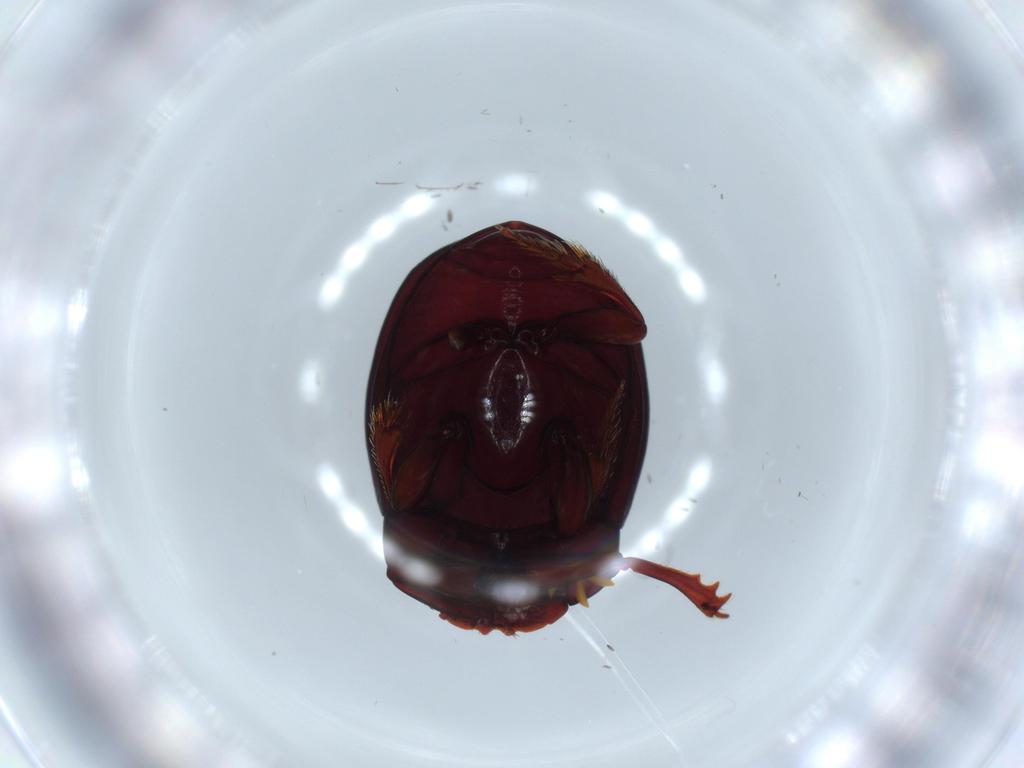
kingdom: Animalia
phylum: Arthropoda
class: Insecta
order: Coleoptera
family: Scarabaeidae
